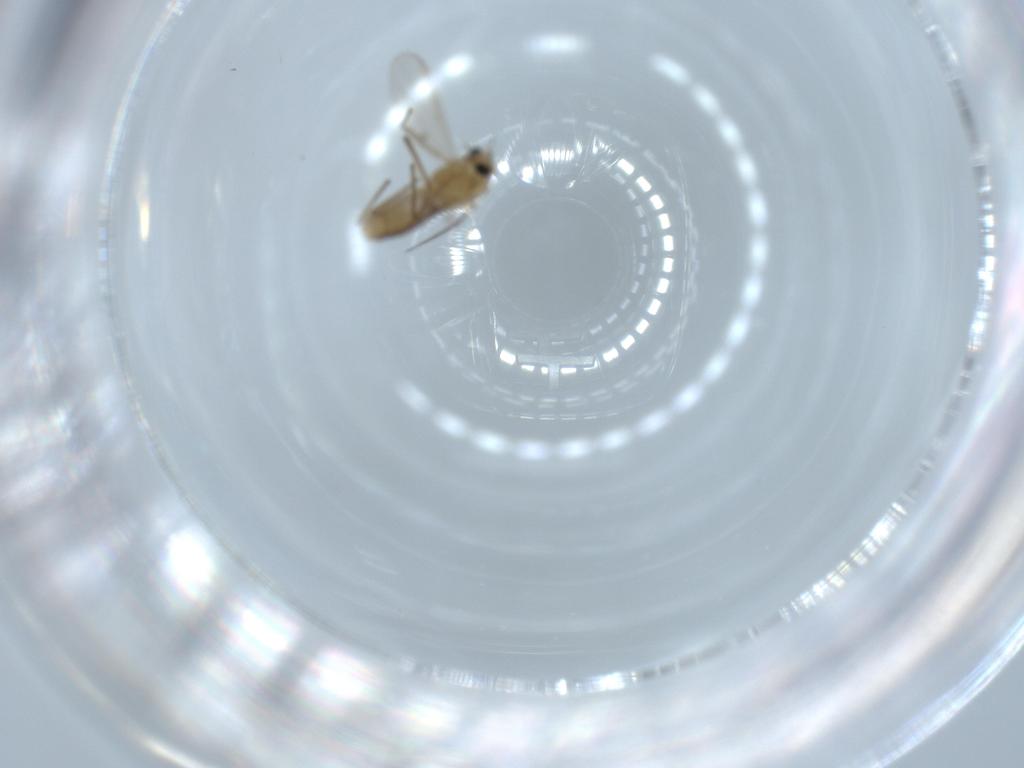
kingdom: Animalia
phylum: Arthropoda
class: Insecta
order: Diptera
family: Chironomidae
